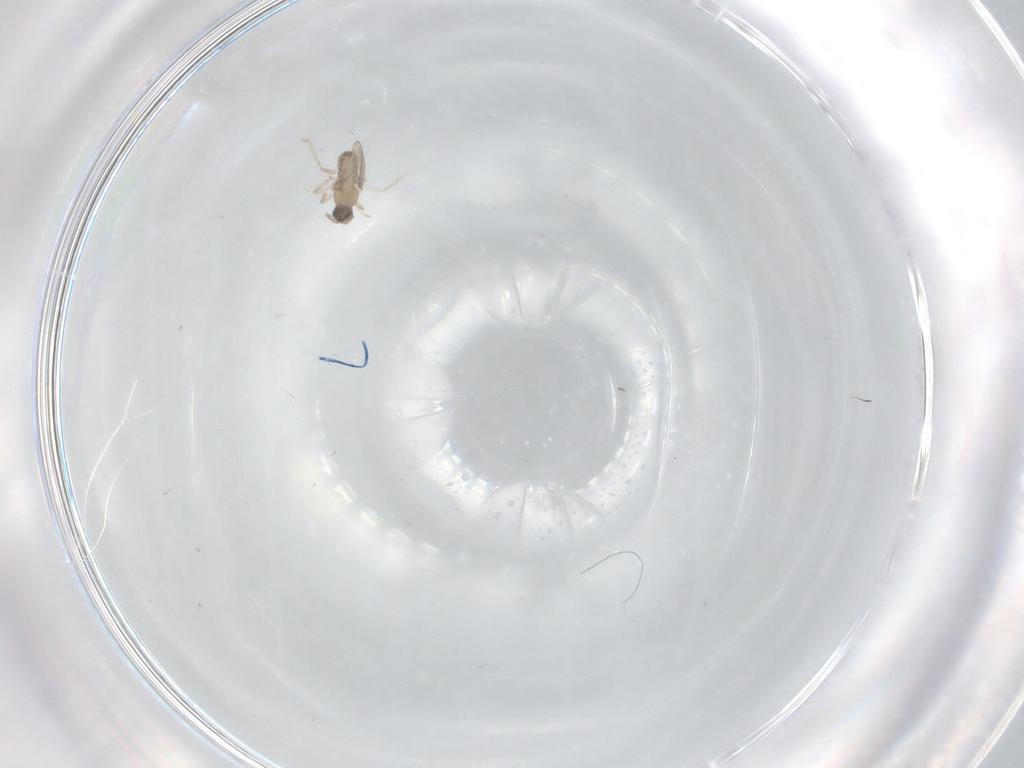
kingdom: Animalia
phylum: Arthropoda
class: Insecta
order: Diptera
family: Cecidomyiidae
